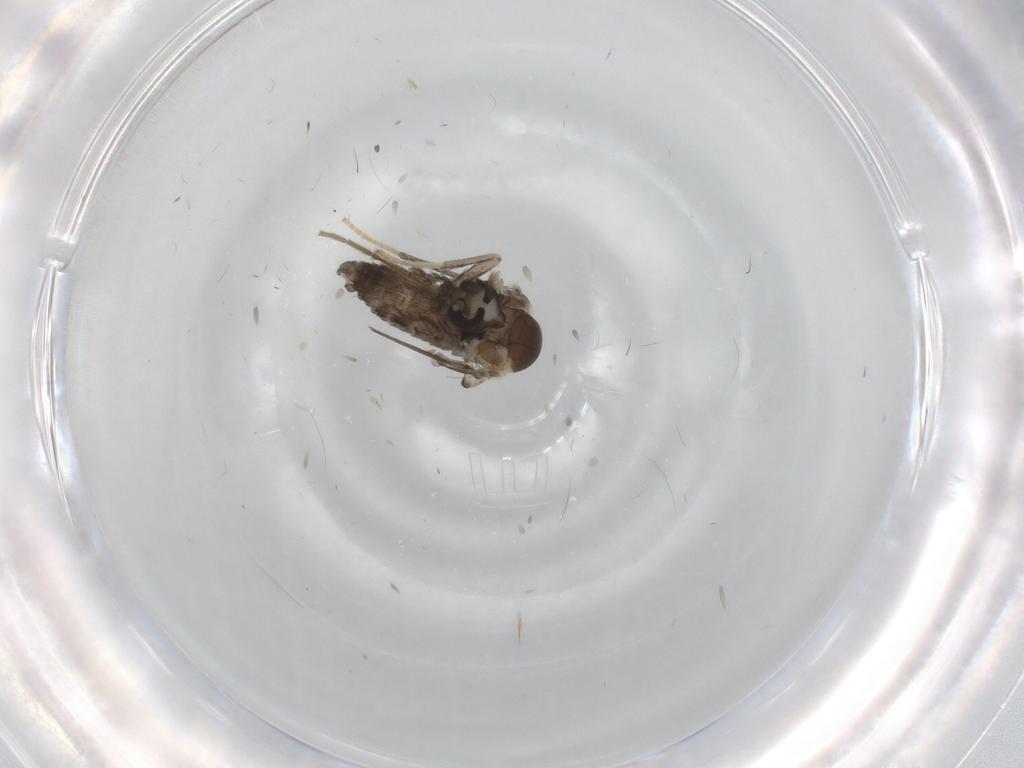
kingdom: Animalia
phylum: Arthropoda
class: Insecta
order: Diptera
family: Psychodidae
